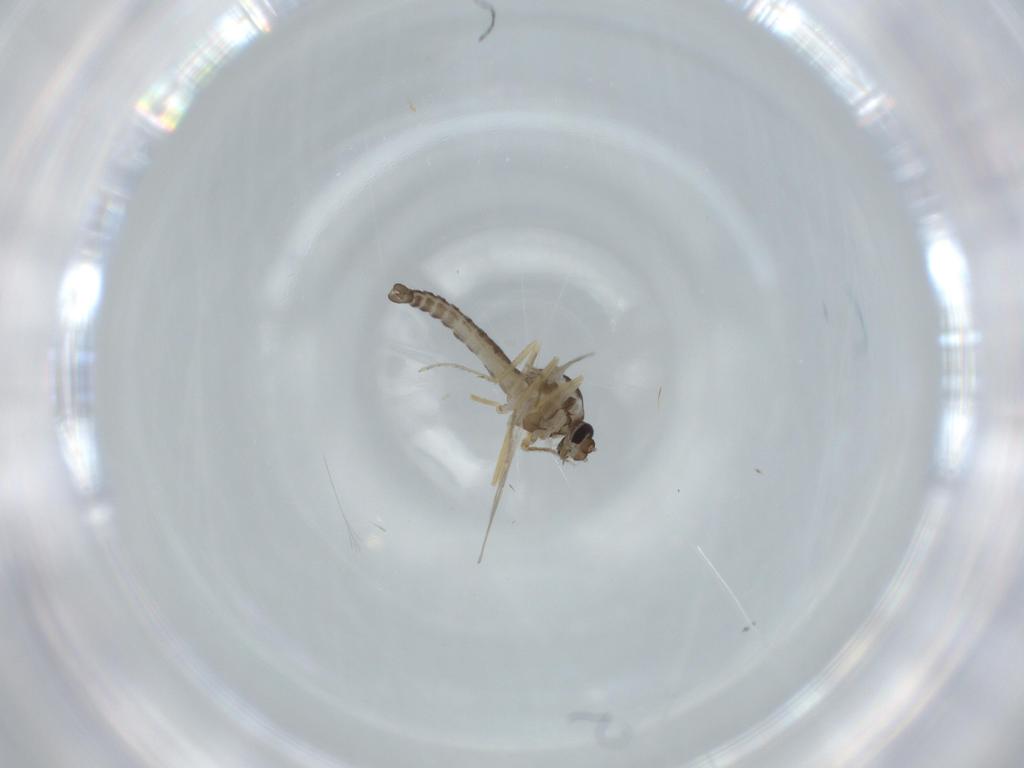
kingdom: Animalia
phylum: Arthropoda
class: Insecta
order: Diptera
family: Ceratopogonidae
